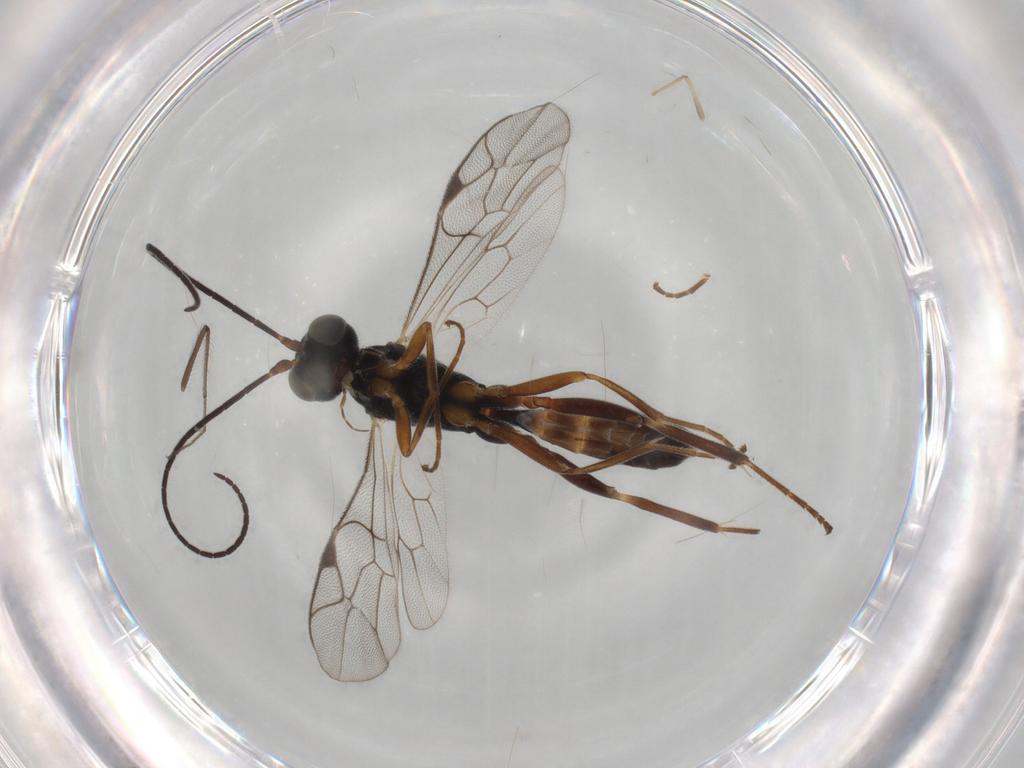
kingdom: Animalia
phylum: Arthropoda
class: Insecta
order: Hymenoptera
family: Ichneumonidae
